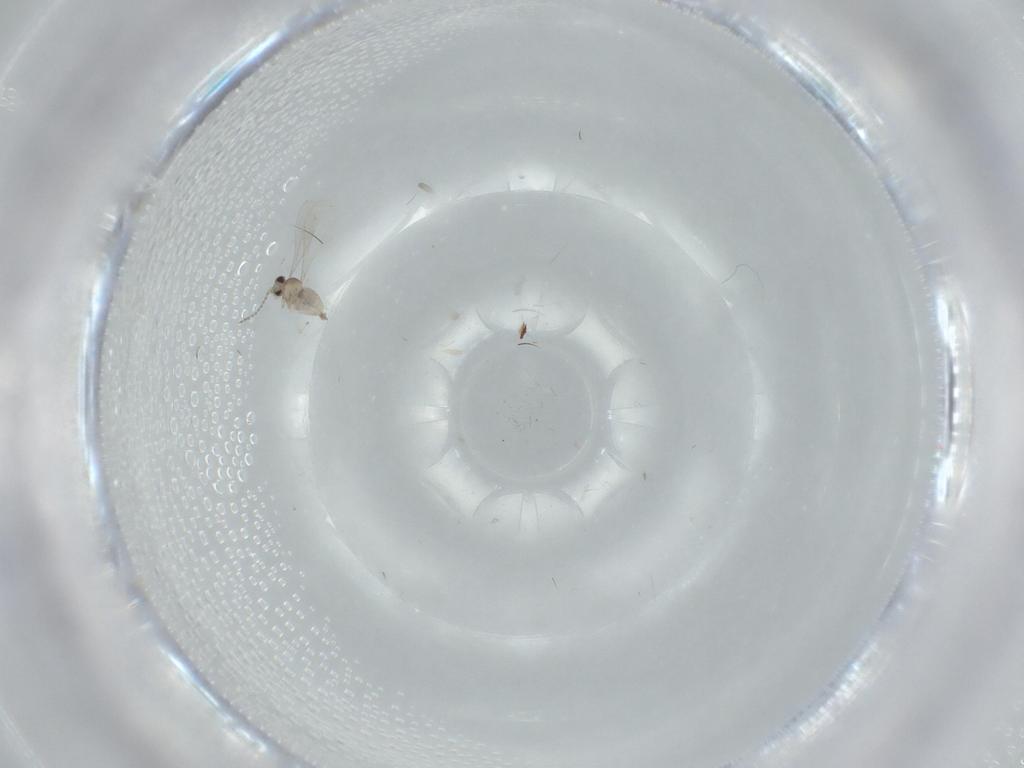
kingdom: Animalia
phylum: Arthropoda
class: Insecta
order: Diptera
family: Cecidomyiidae
